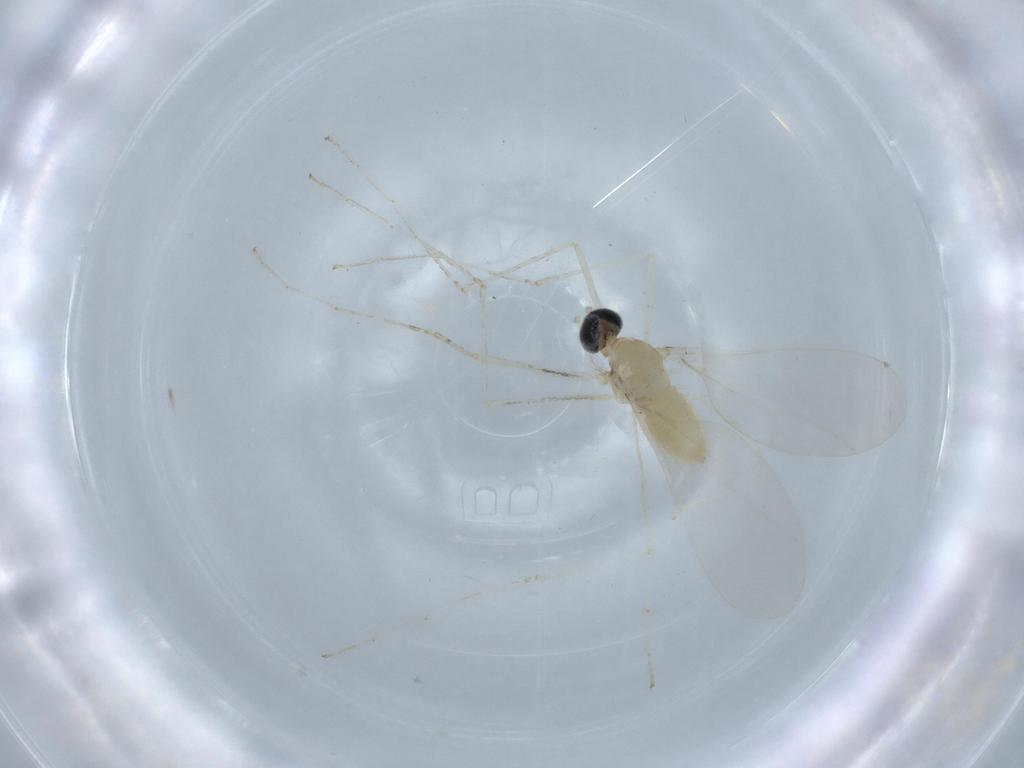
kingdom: Animalia
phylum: Arthropoda
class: Insecta
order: Diptera
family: Cecidomyiidae
